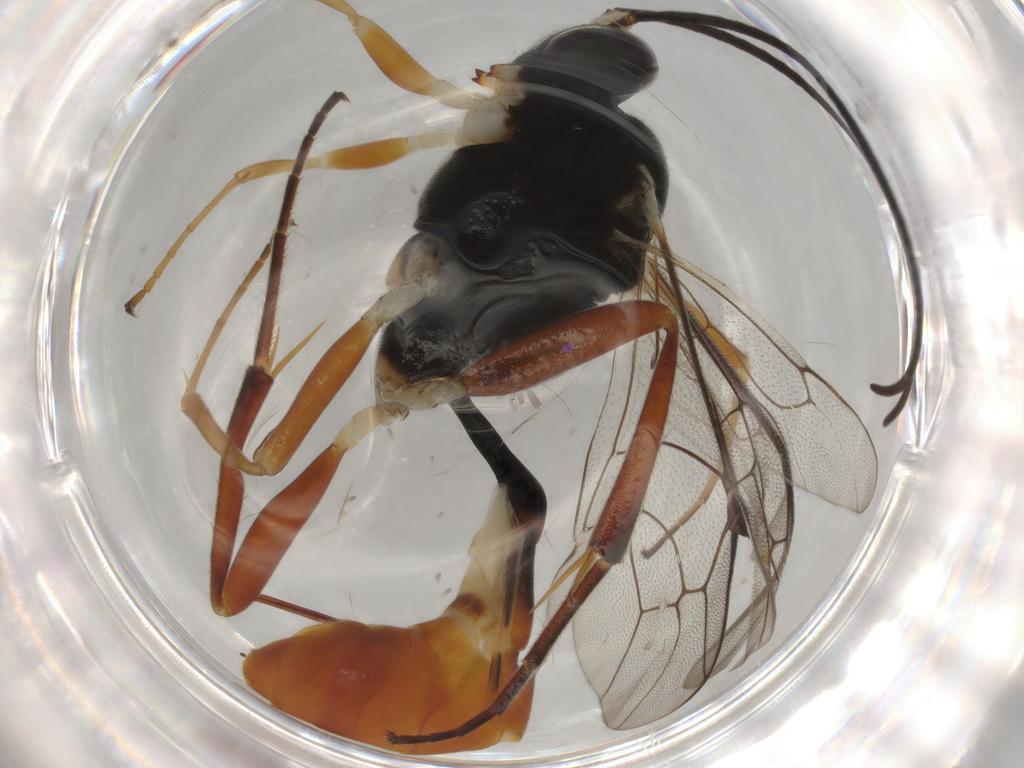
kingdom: Animalia
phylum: Arthropoda
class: Insecta
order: Hymenoptera
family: Ichneumonidae
